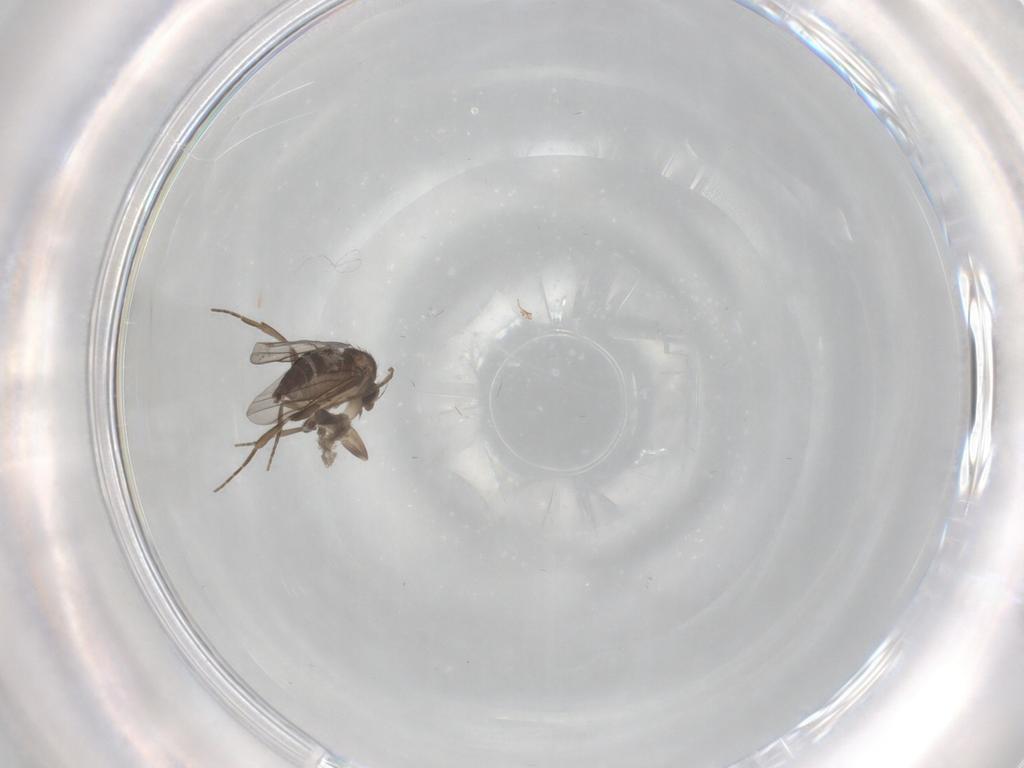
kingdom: Animalia
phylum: Arthropoda
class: Insecta
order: Diptera
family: Phoridae
